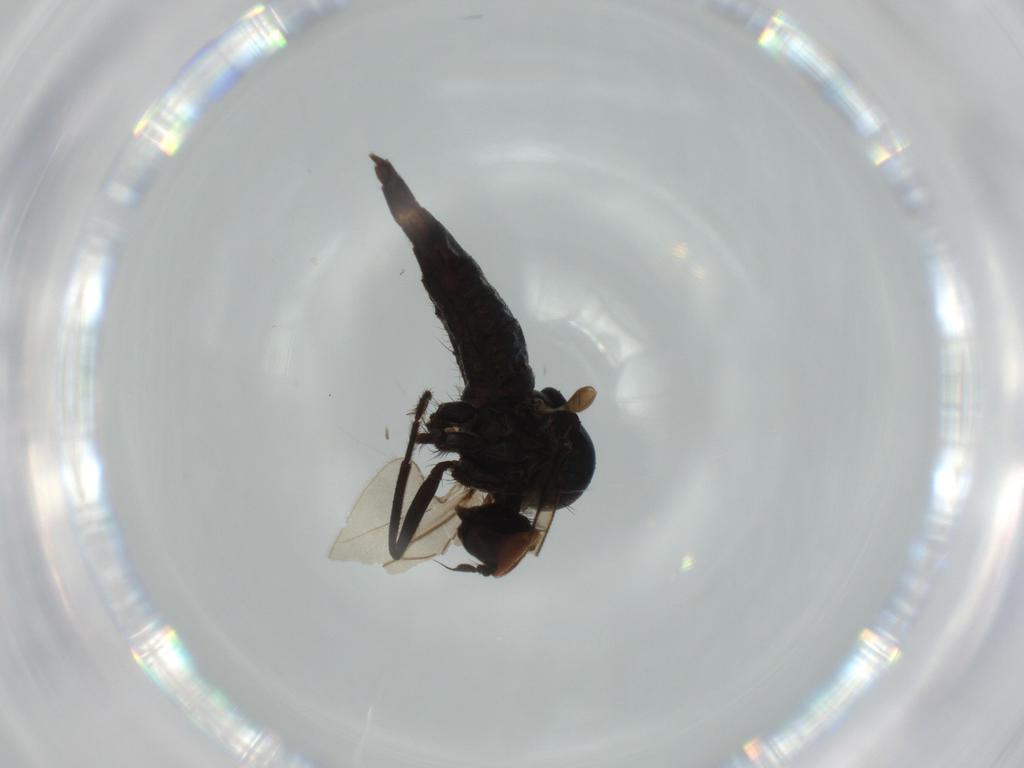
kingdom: Animalia
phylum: Arthropoda
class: Insecta
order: Diptera
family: Hybotidae
